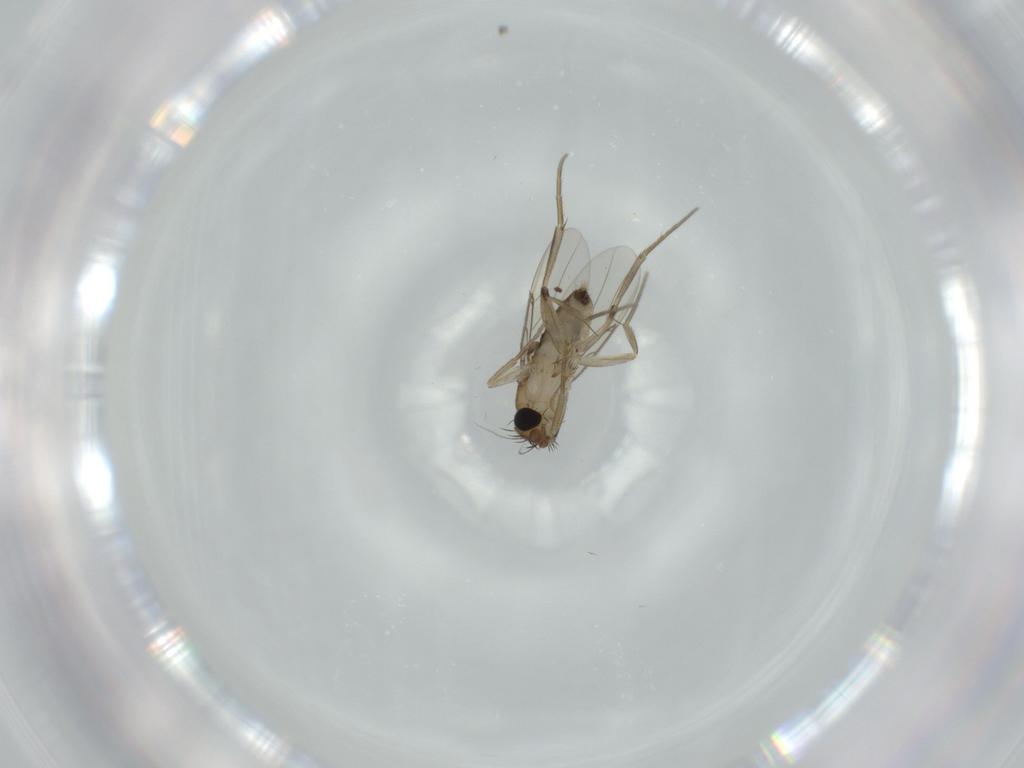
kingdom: Animalia
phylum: Arthropoda
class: Insecta
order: Diptera
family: Phoridae
